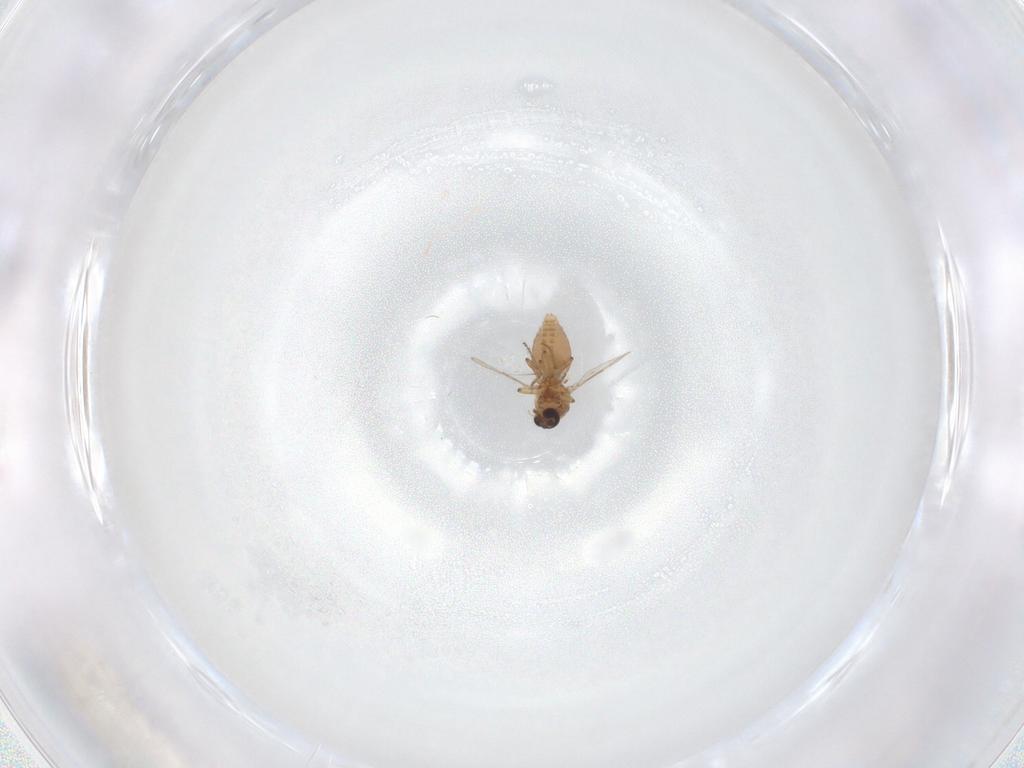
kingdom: Animalia
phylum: Arthropoda
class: Insecta
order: Diptera
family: Ceratopogonidae
